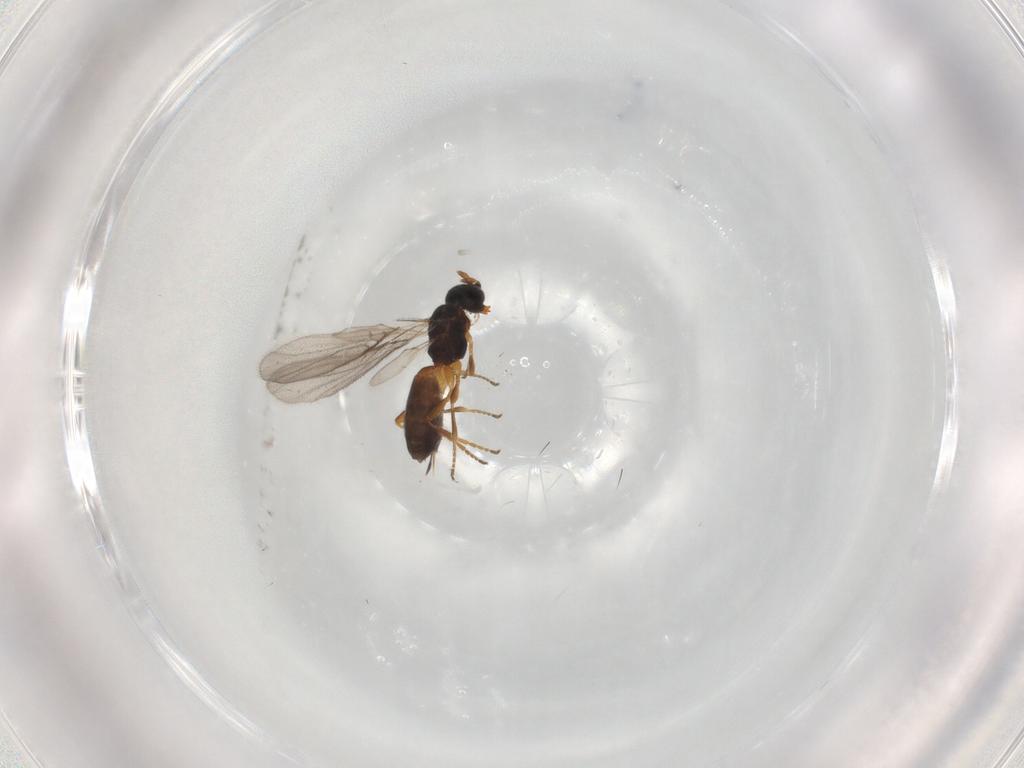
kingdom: Animalia
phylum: Arthropoda
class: Insecta
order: Hymenoptera
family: Braconidae
